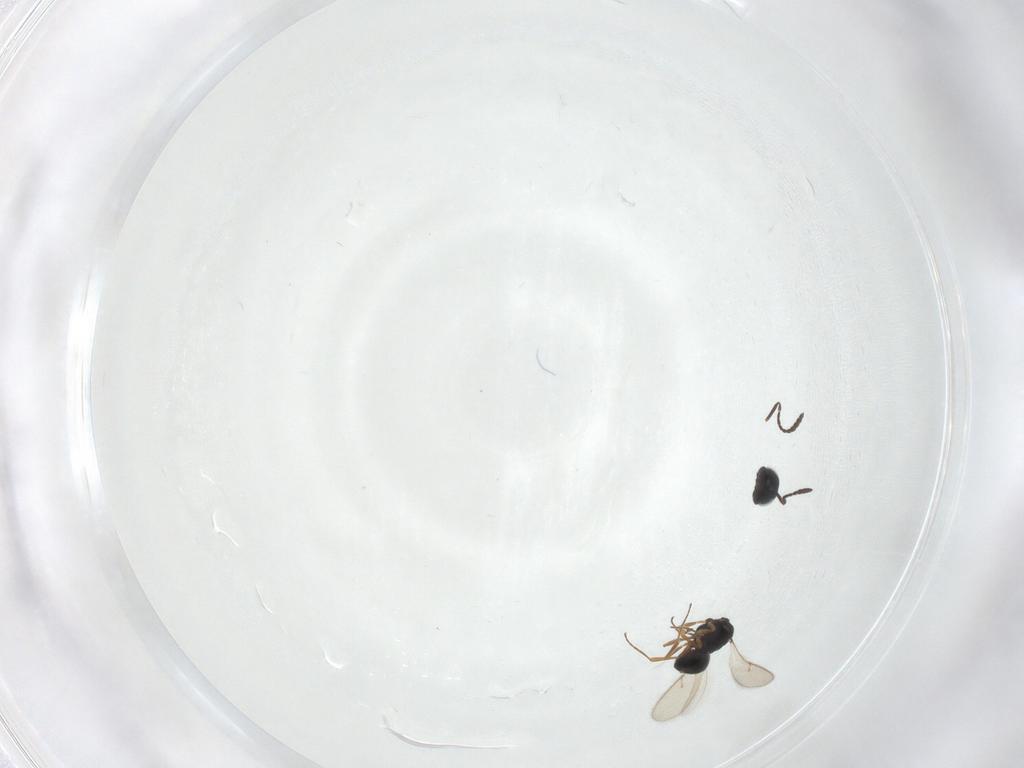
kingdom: Animalia
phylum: Arthropoda
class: Insecta
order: Hymenoptera
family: Scelionidae
